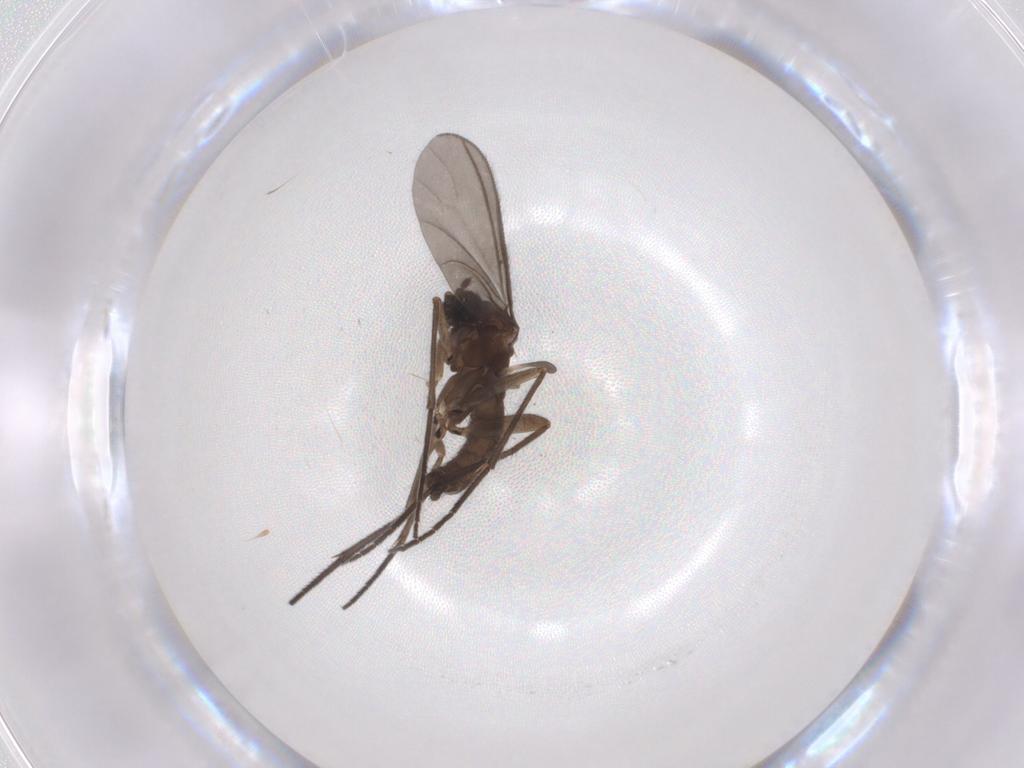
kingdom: Animalia
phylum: Arthropoda
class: Insecta
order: Diptera
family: Sciaridae
